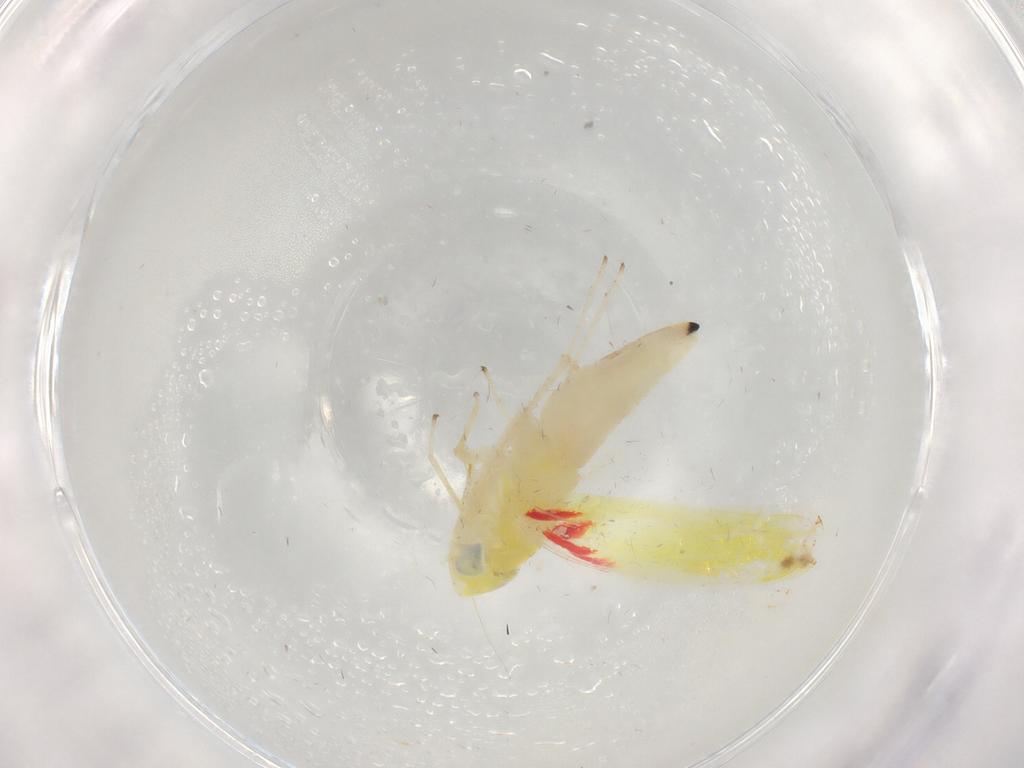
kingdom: Animalia
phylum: Arthropoda
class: Insecta
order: Hemiptera
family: Cicadellidae
